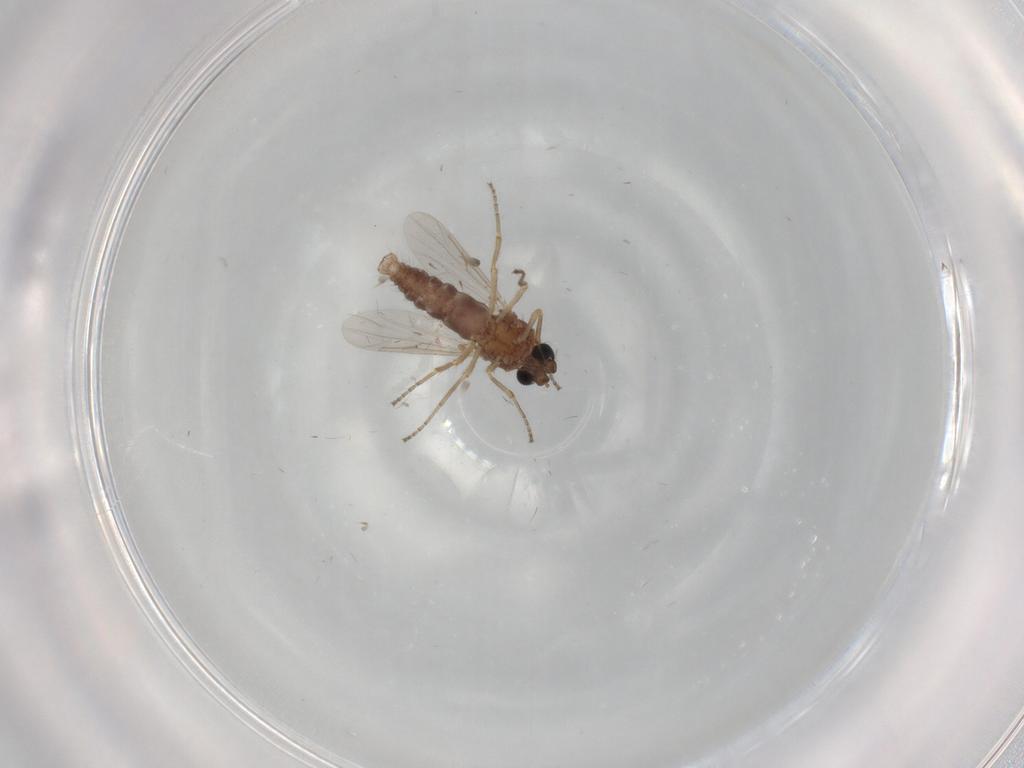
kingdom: Animalia
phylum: Arthropoda
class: Insecta
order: Diptera
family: Ceratopogonidae
